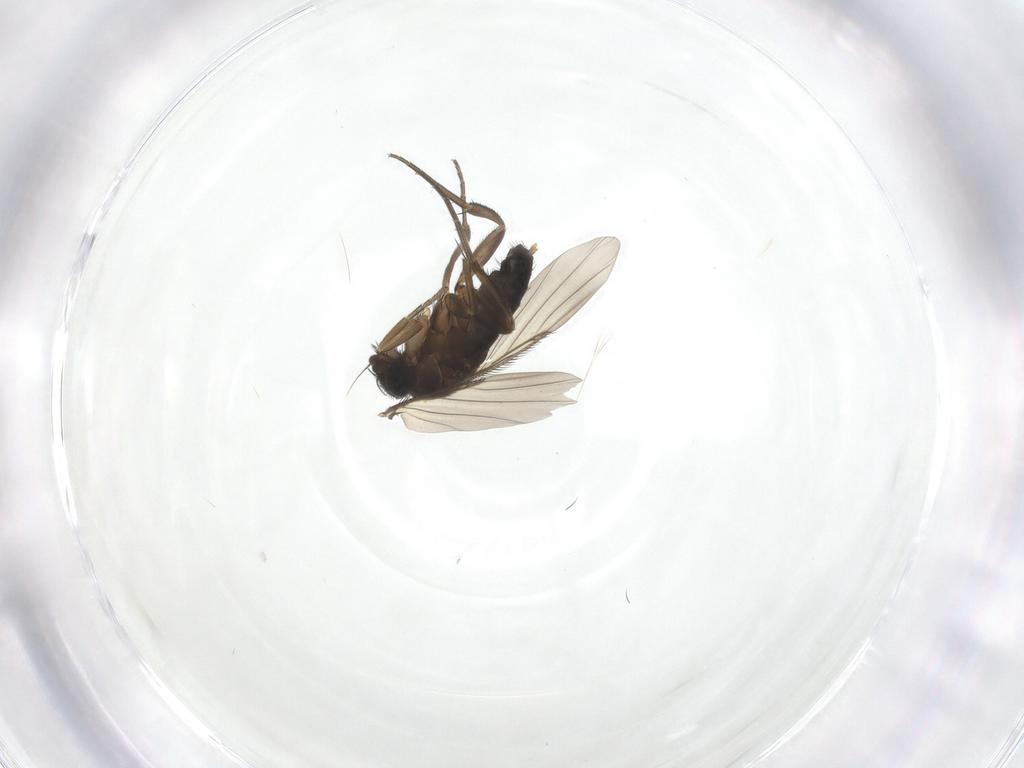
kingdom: Animalia
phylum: Arthropoda
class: Insecta
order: Diptera
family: Phoridae
